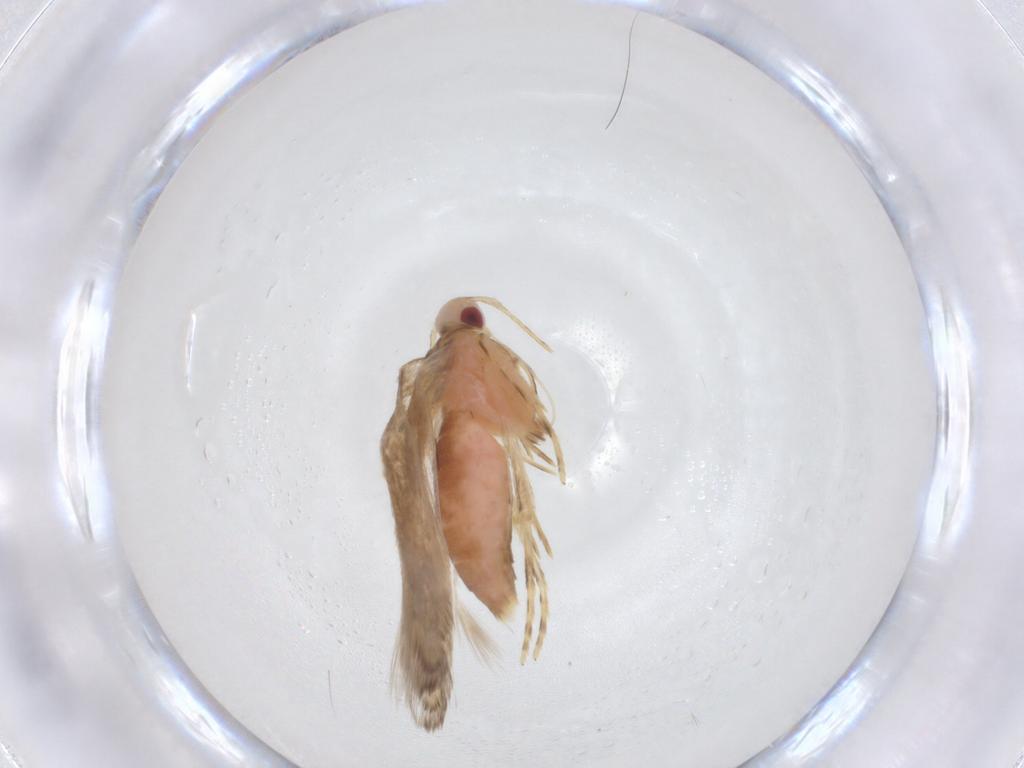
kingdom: Animalia
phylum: Arthropoda
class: Insecta
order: Lepidoptera
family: Cosmopterigidae
